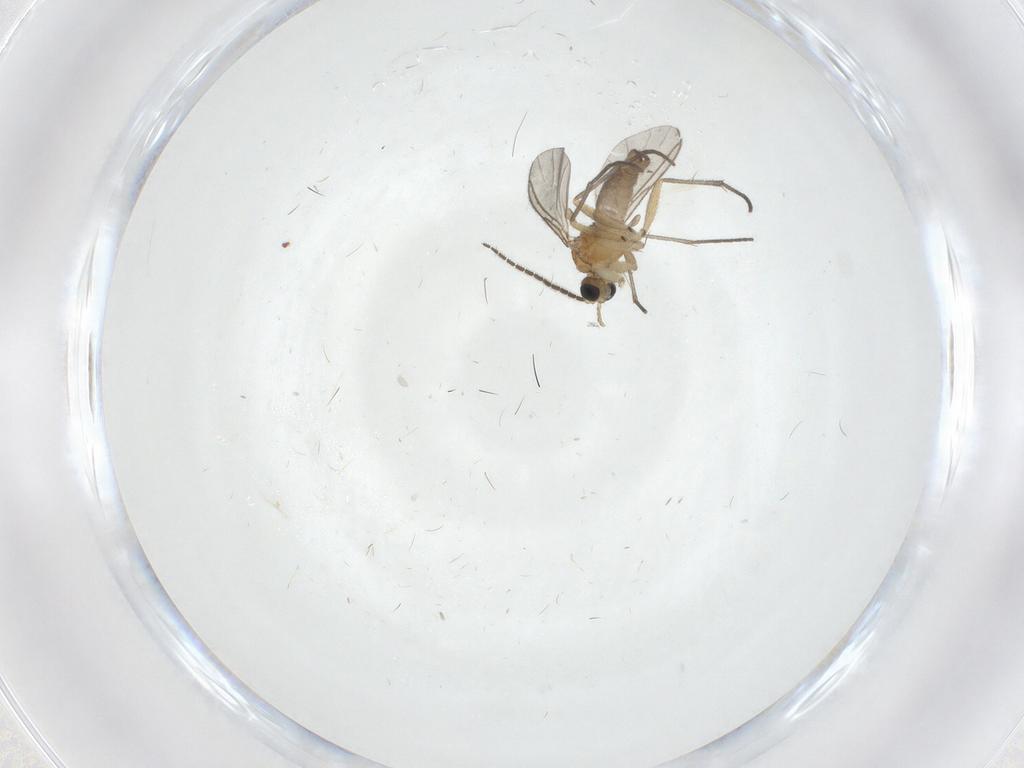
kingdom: Animalia
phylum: Arthropoda
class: Insecta
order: Diptera
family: Sciaridae
